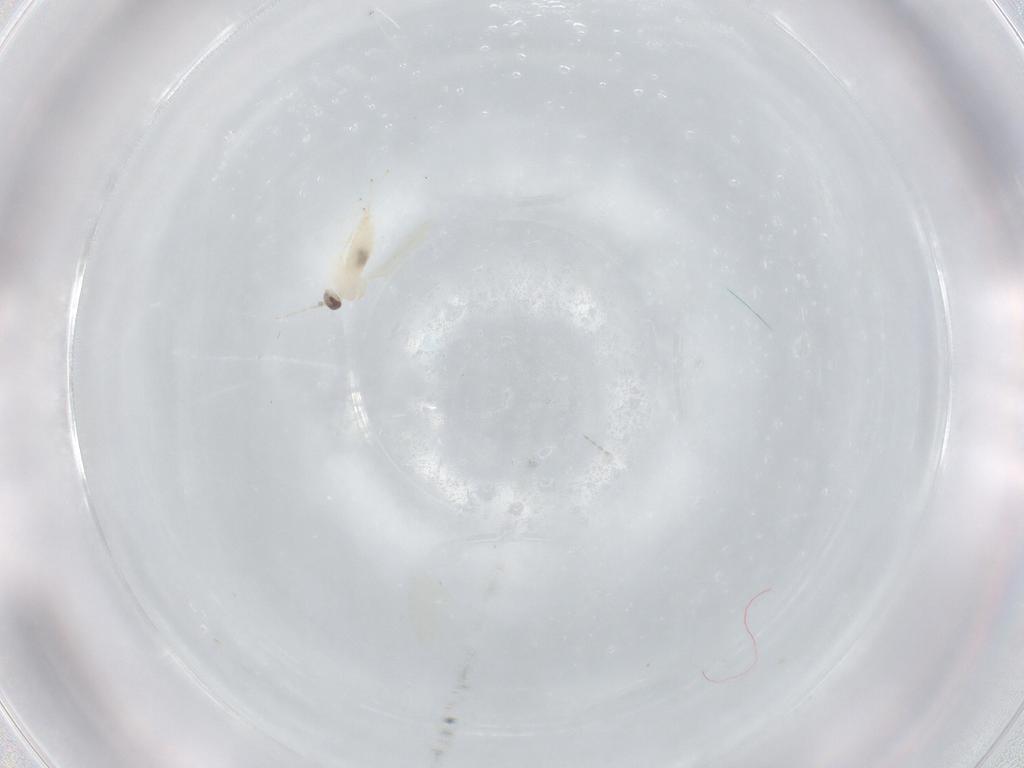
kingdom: Animalia
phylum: Arthropoda
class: Insecta
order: Diptera
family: Cecidomyiidae
